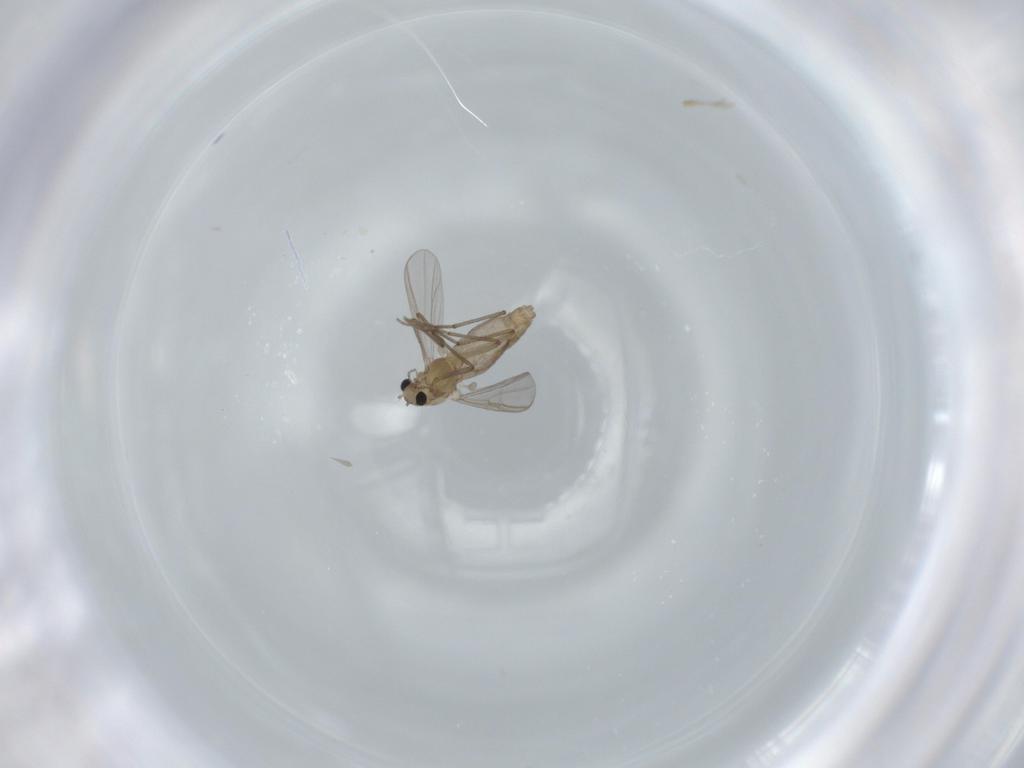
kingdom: Animalia
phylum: Arthropoda
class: Insecta
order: Diptera
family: Chironomidae
